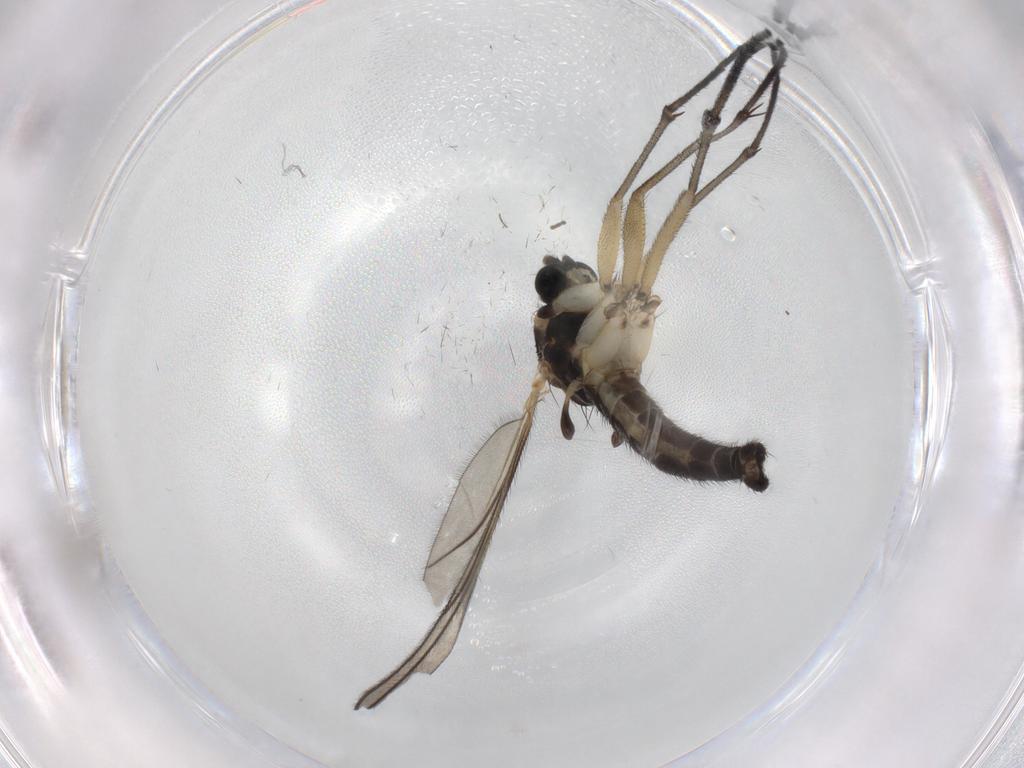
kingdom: Animalia
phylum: Arthropoda
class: Insecta
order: Diptera
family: Sciaridae
